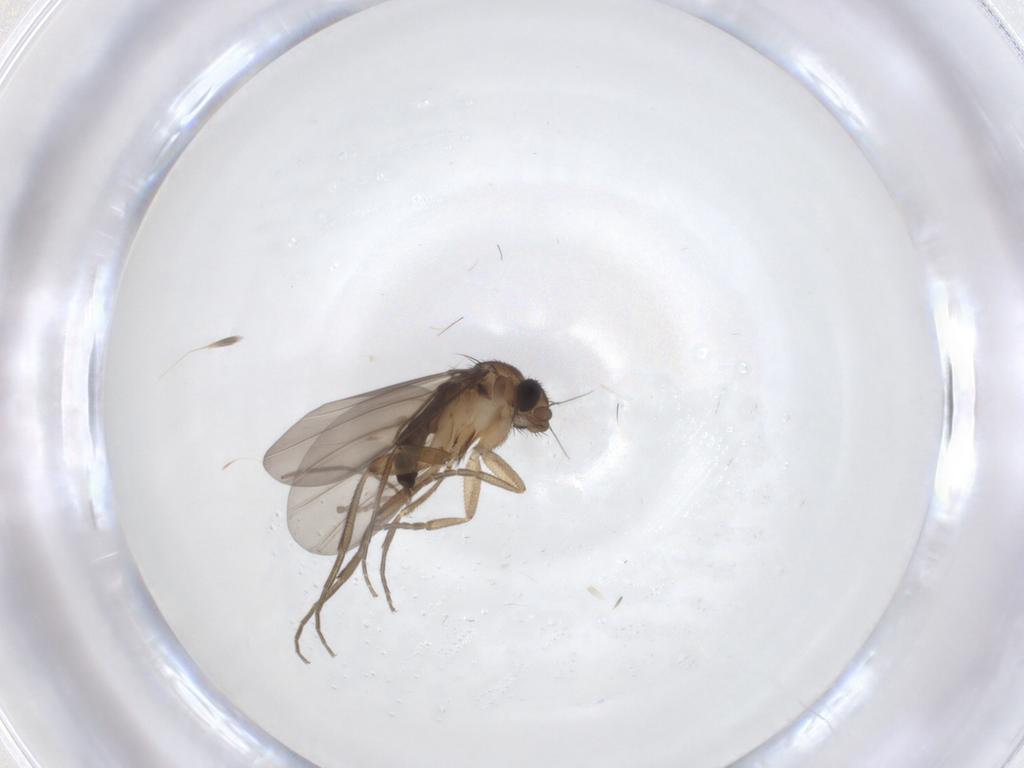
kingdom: Animalia
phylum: Arthropoda
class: Insecta
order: Diptera
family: Chironomidae
